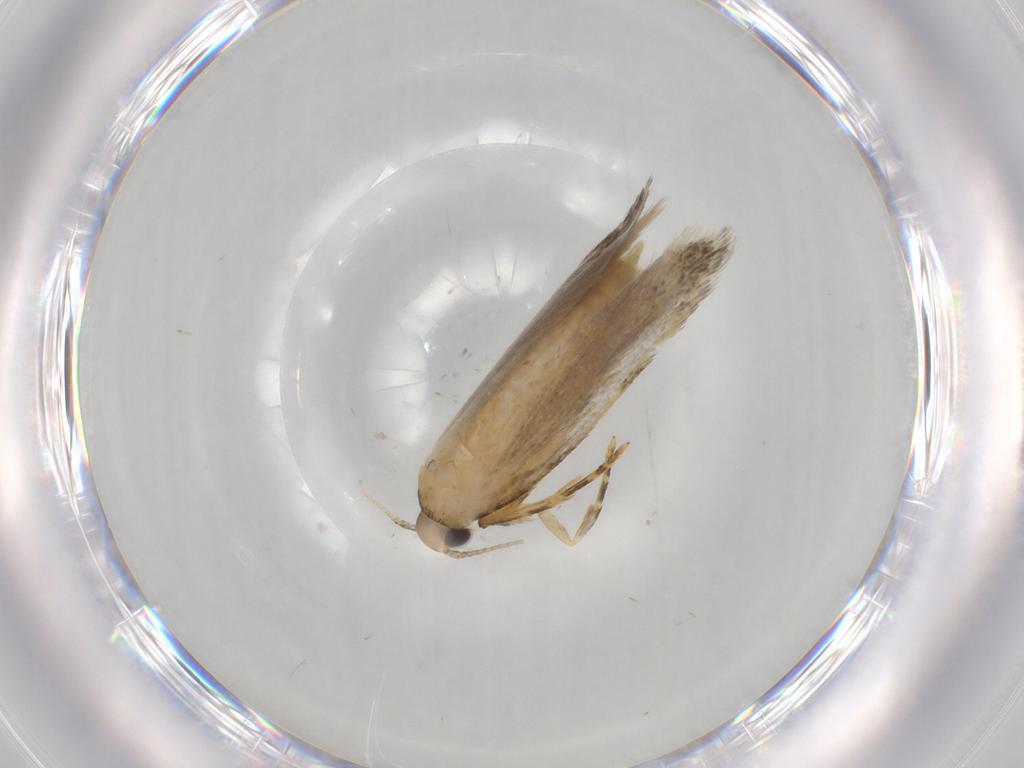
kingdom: Animalia
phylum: Arthropoda
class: Insecta
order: Lepidoptera
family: Autostichidae
